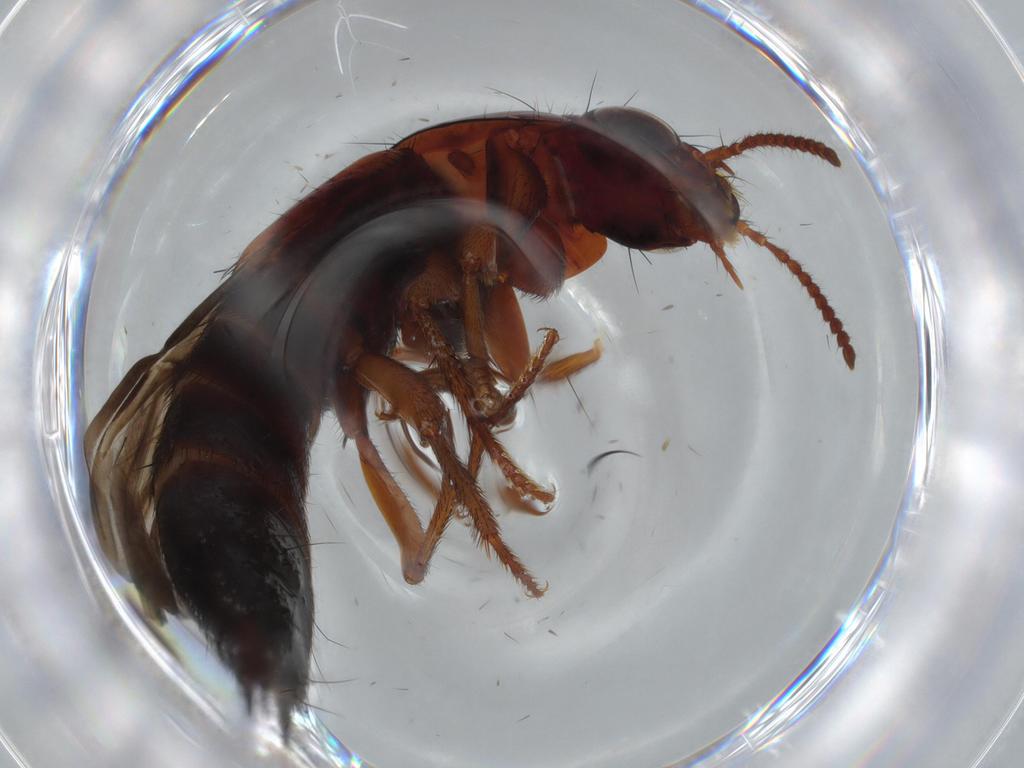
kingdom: Animalia
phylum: Arthropoda
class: Insecta
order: Coleoptera
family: Staphylinidae
